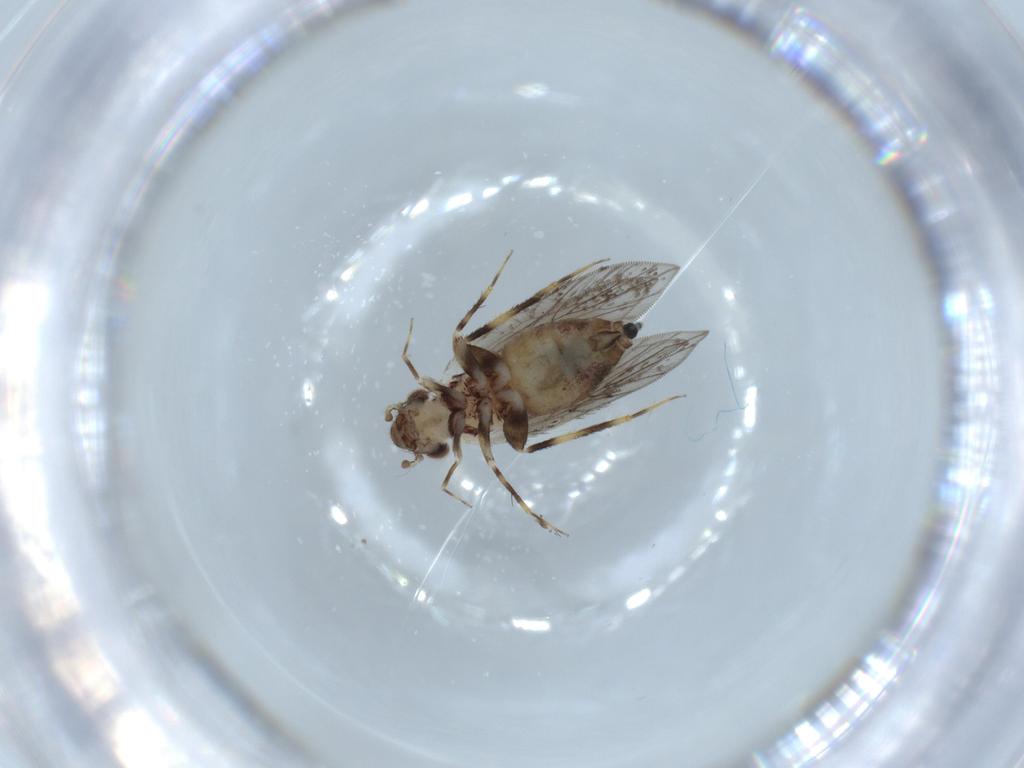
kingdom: Animalia
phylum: Arthropoda
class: Insecta
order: Psocodea
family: Lepidopsocidae
